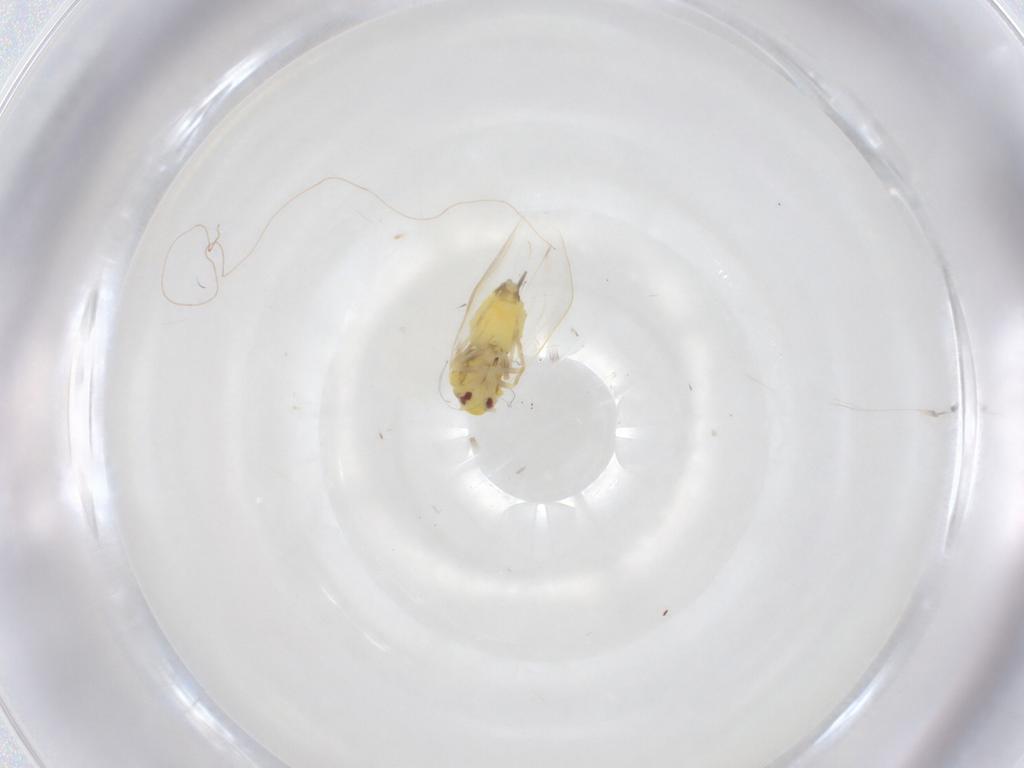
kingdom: Animalia
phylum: Arthropoda
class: Insecta
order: Hemiptera
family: Aleyrodidae
